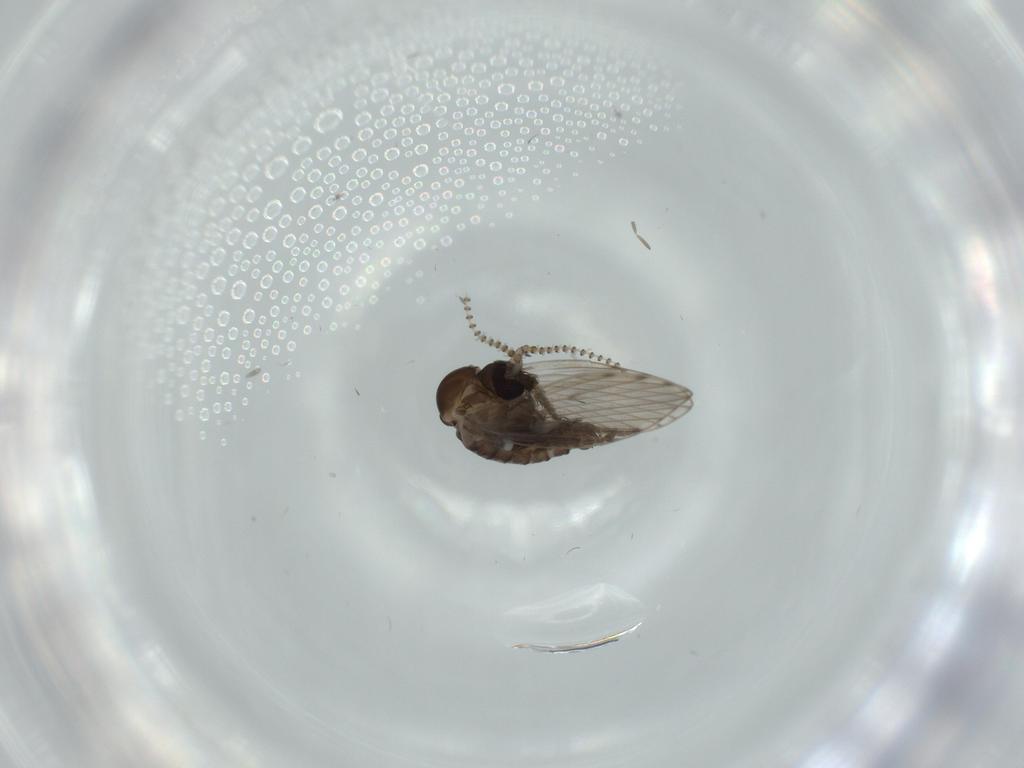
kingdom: Animalia
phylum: Arthropoda
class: Insecta
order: Diptera
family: Psychodidae
